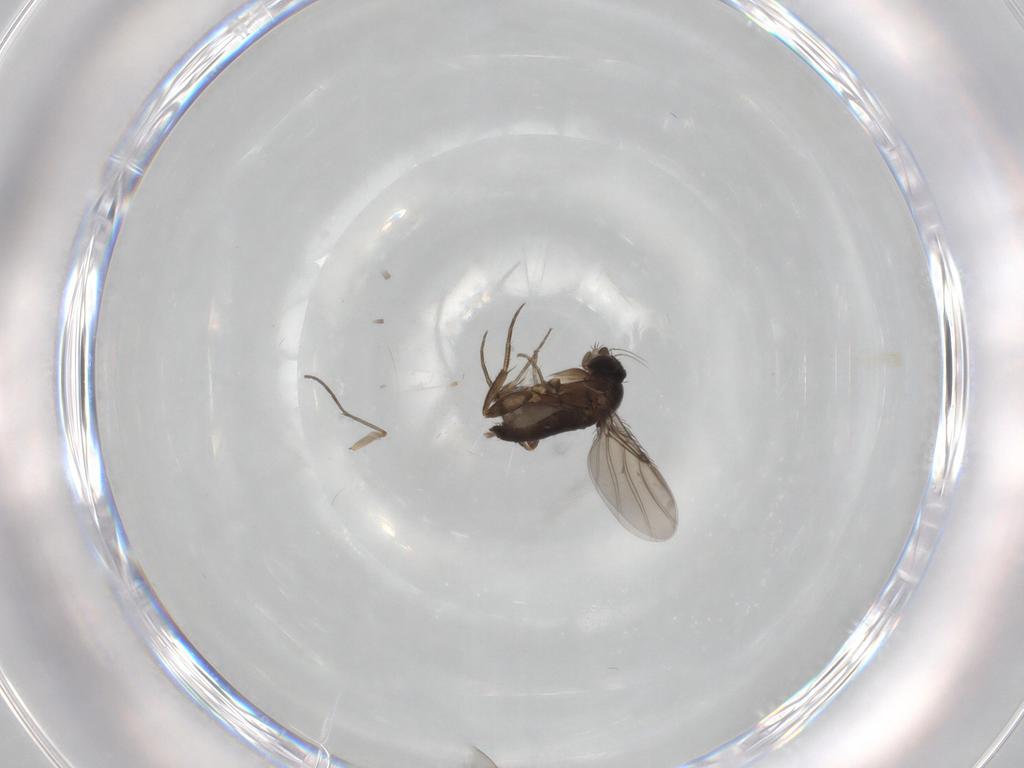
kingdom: Animalia
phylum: Arthropoda
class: Insecta
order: Diptera
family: Phoridae
